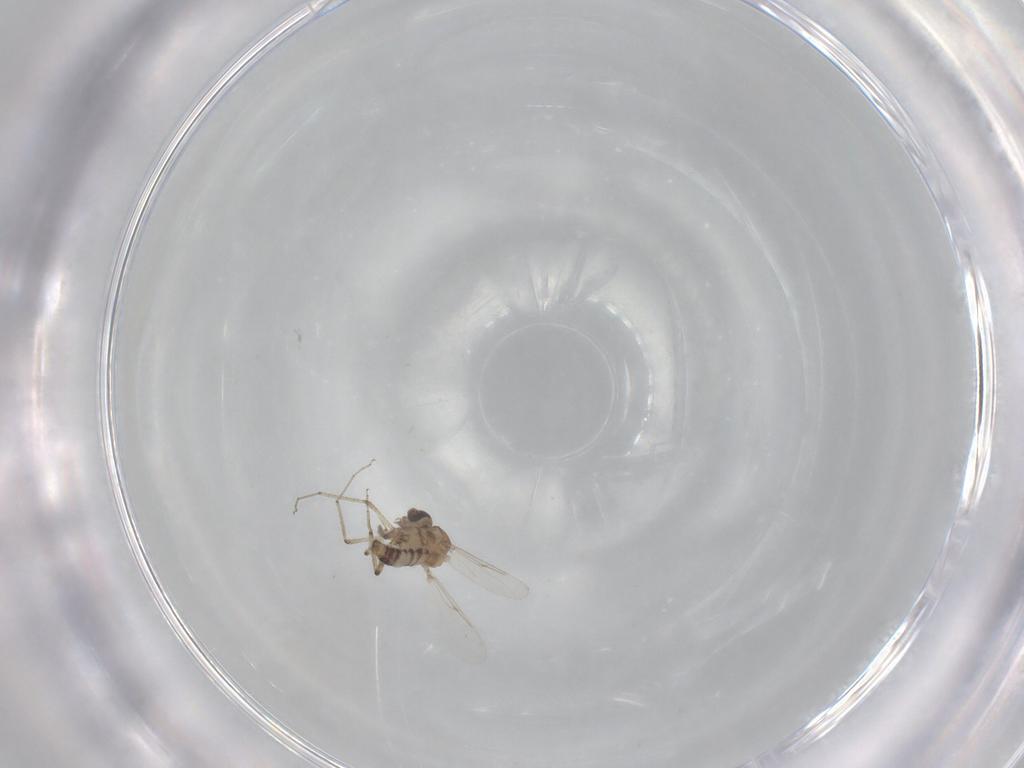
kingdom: Animalia
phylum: Arthropoda
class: Insecta
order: Diptera
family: Ceratopogonidae
